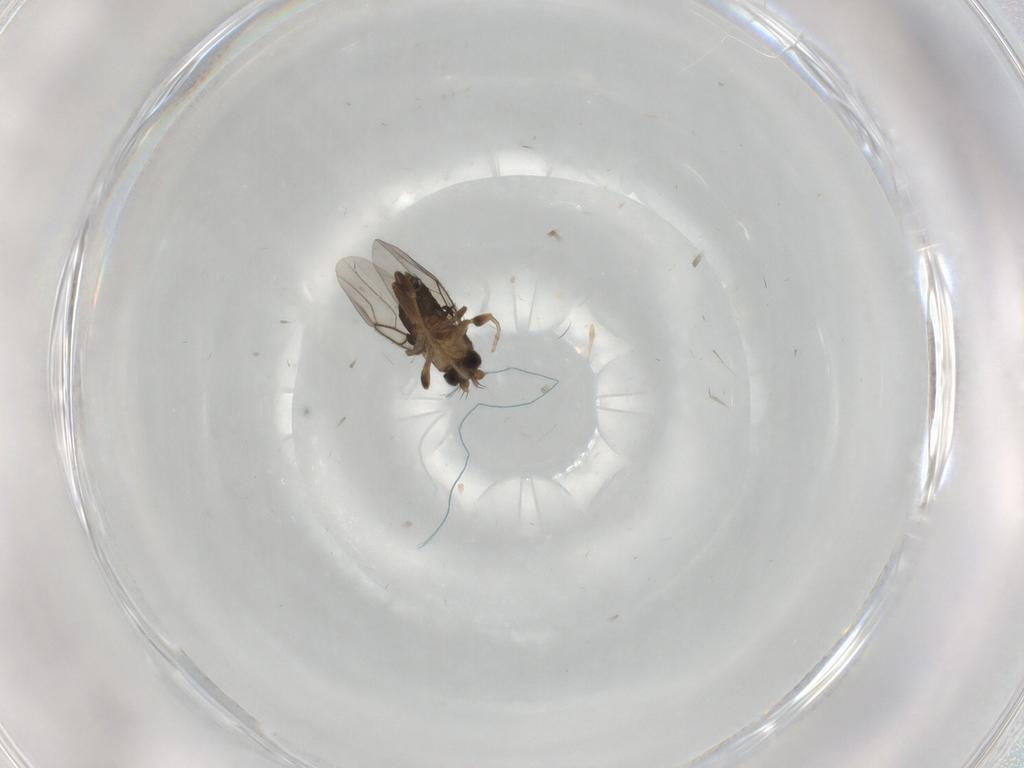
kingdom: Animalia
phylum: Arthropoda
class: Insecta
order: Diptera
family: Phoridae
